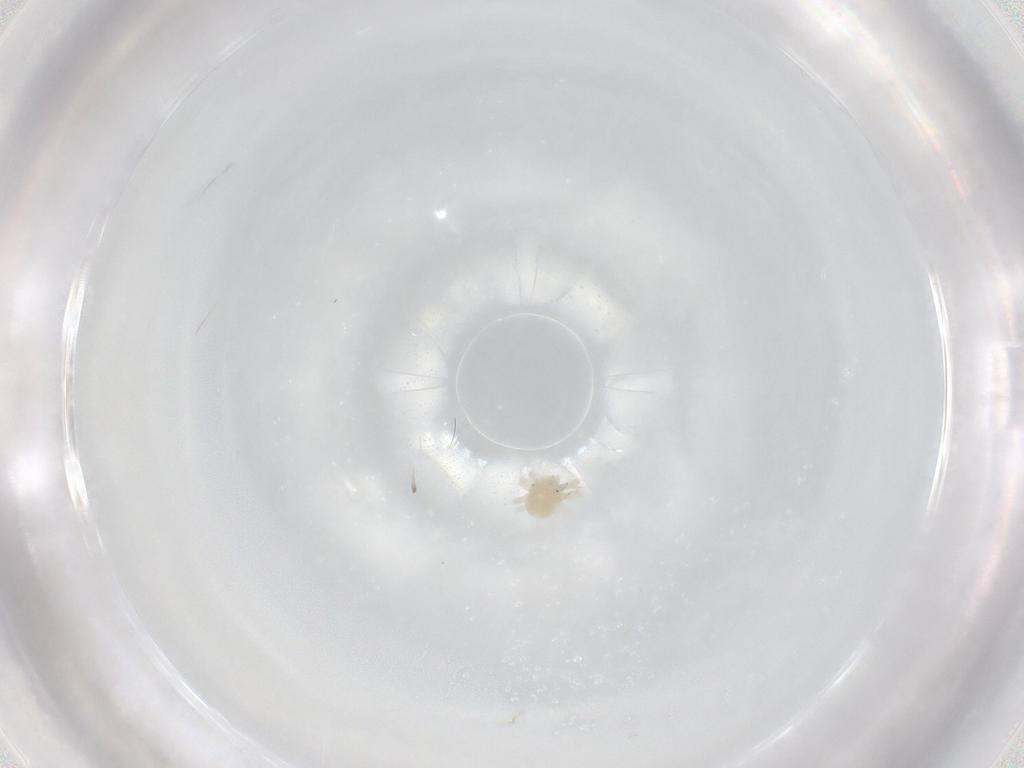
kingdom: Animalia
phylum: Arthropoda
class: Arachnida
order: Trombidiformes
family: Anystidae
